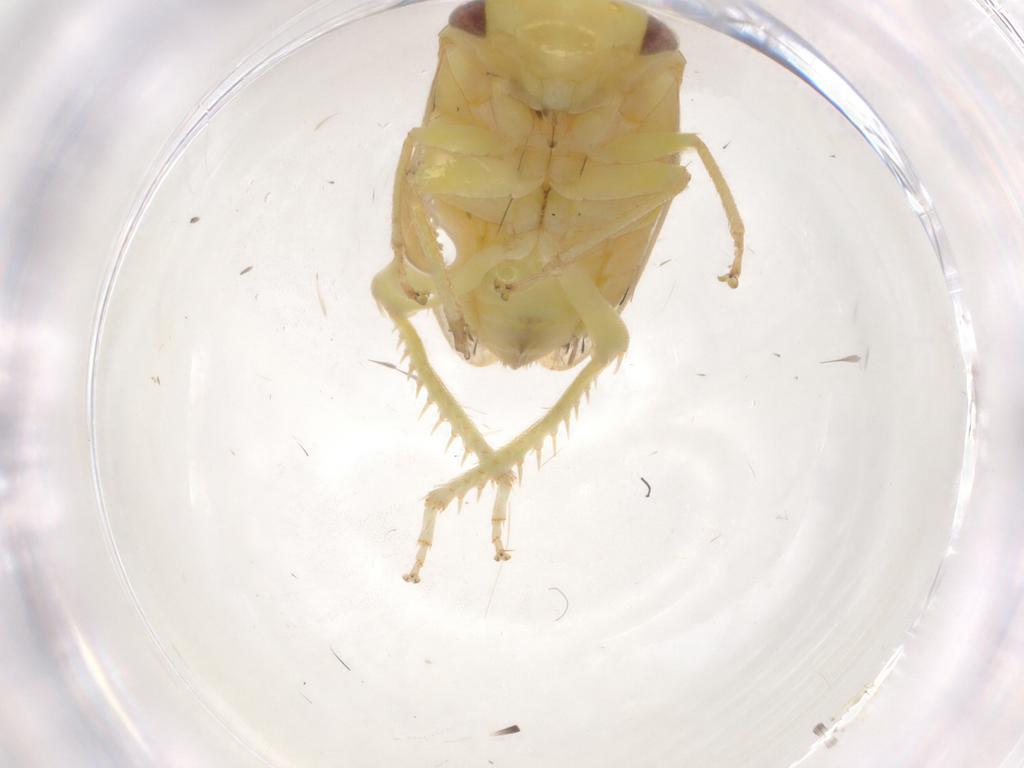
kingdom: Animalia
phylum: Arthropoda
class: Insecta
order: Hemiptera
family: Cicadellidae
